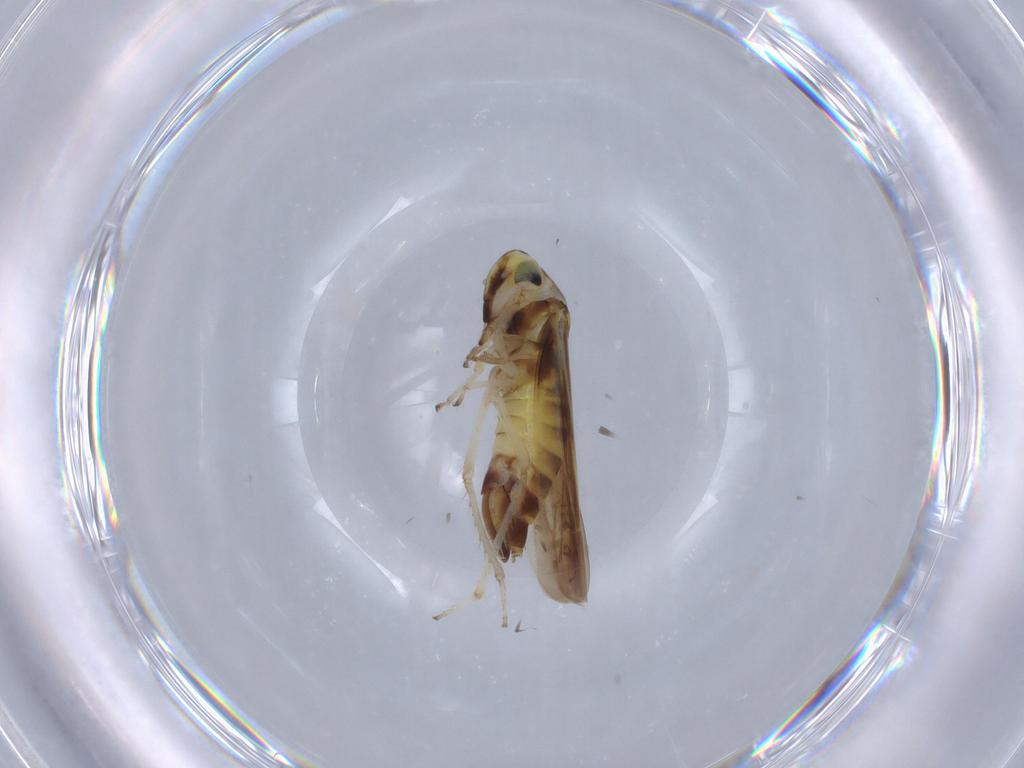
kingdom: Animalia
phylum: Arthropoda
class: Insecta
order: Hemiptera
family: Cicadellidae
